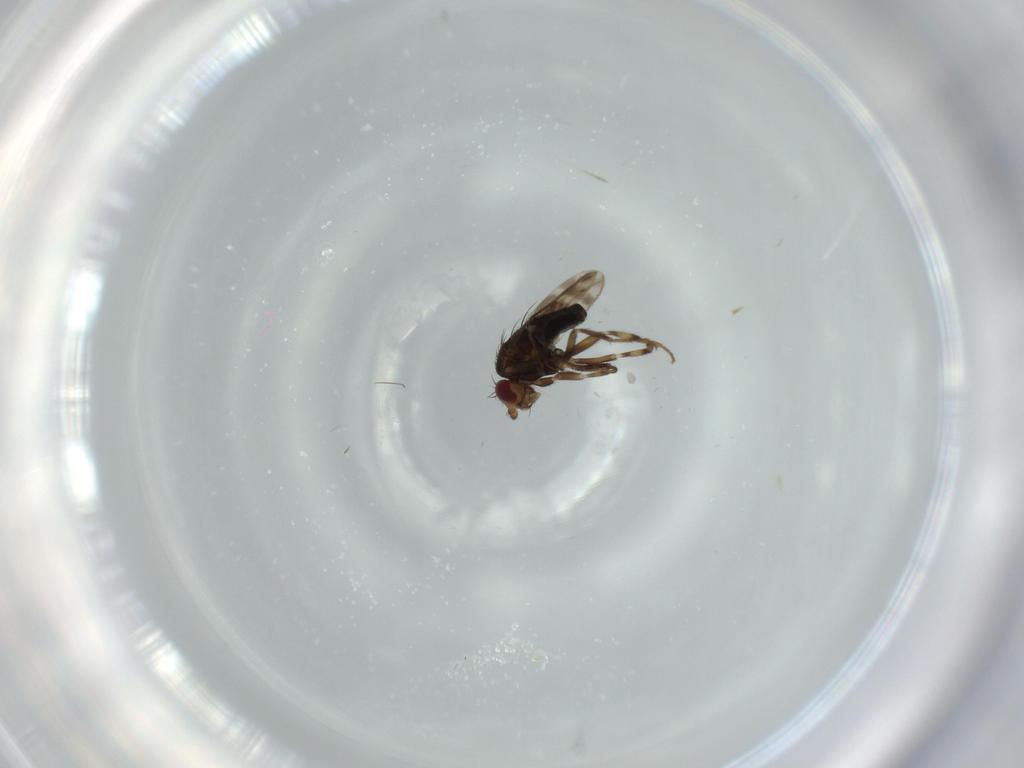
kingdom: Animalia
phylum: Arthropoda
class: Insecta
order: Diptera
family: Sphaeroceridae
